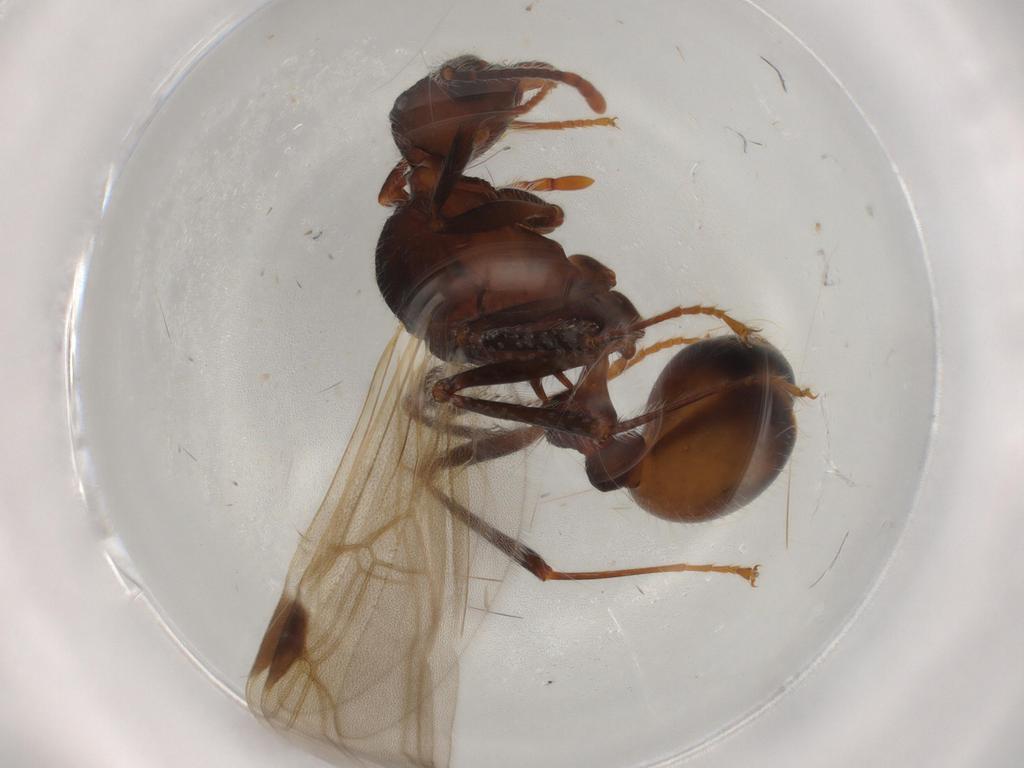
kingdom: Animalia
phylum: Arthropoda
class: Insecta
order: Hymenoptera
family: Formicidae
